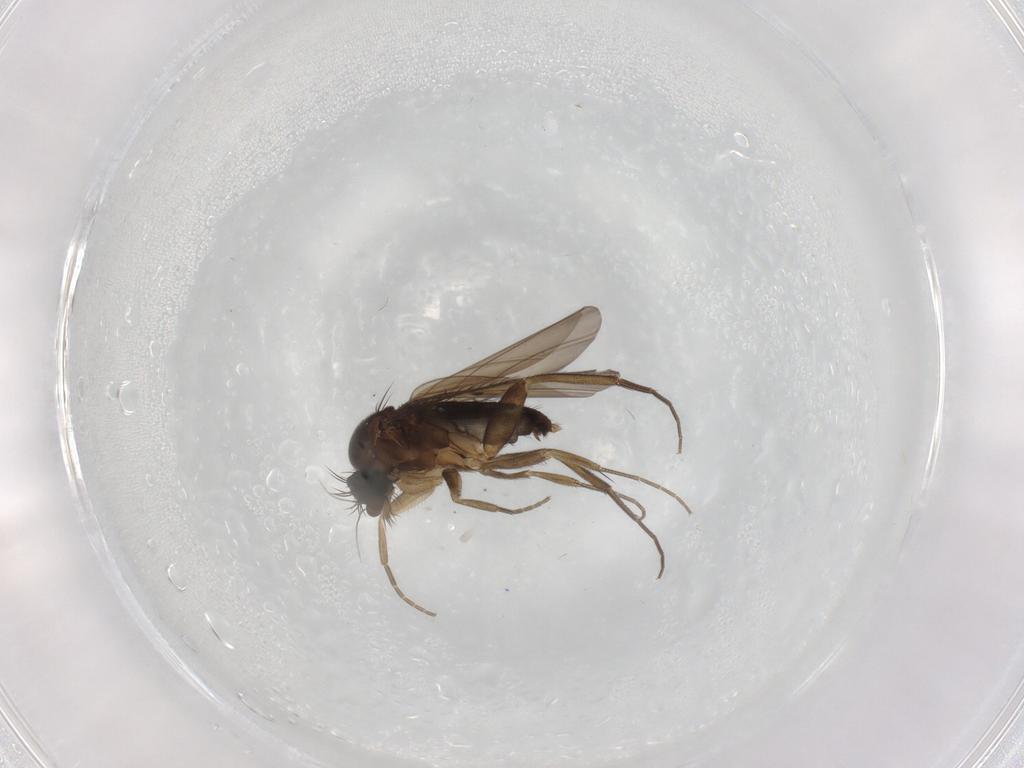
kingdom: Animalia
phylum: Arthropoda
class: Insecta
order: Diptera
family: Phoridae
